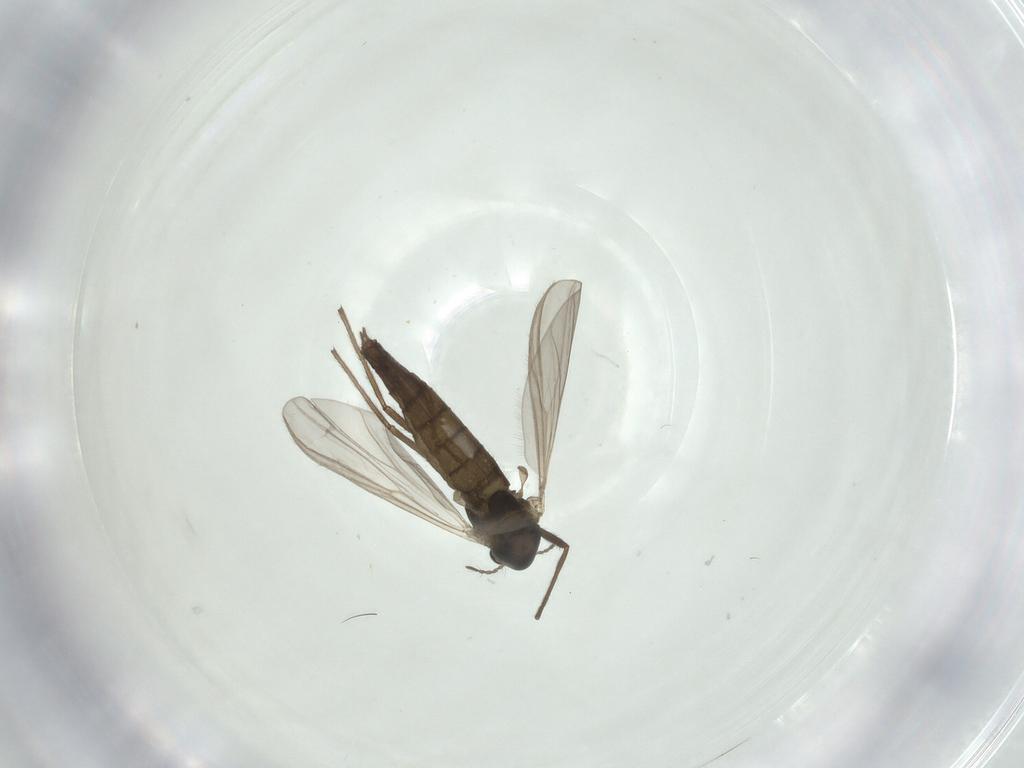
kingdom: Animalia
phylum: Arthropoda
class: Insecta
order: Diptera
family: Chironomidae
